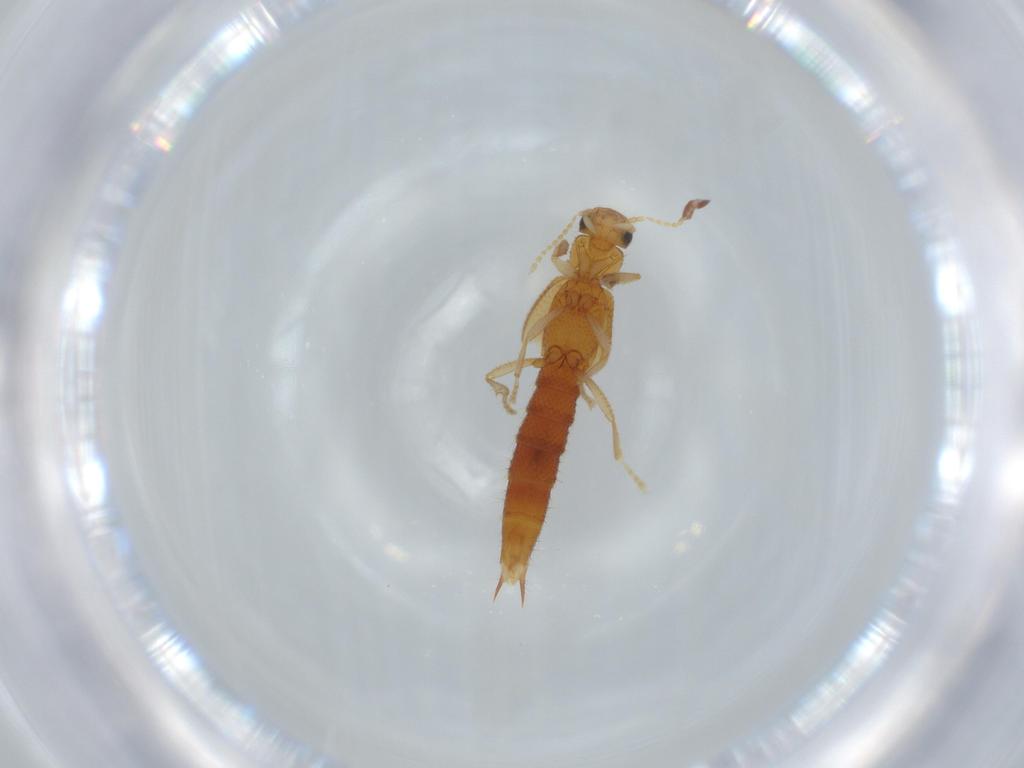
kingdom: Animalia
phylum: Arthropoda
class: Insecta
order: Coleoptera
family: Staphylinidae
